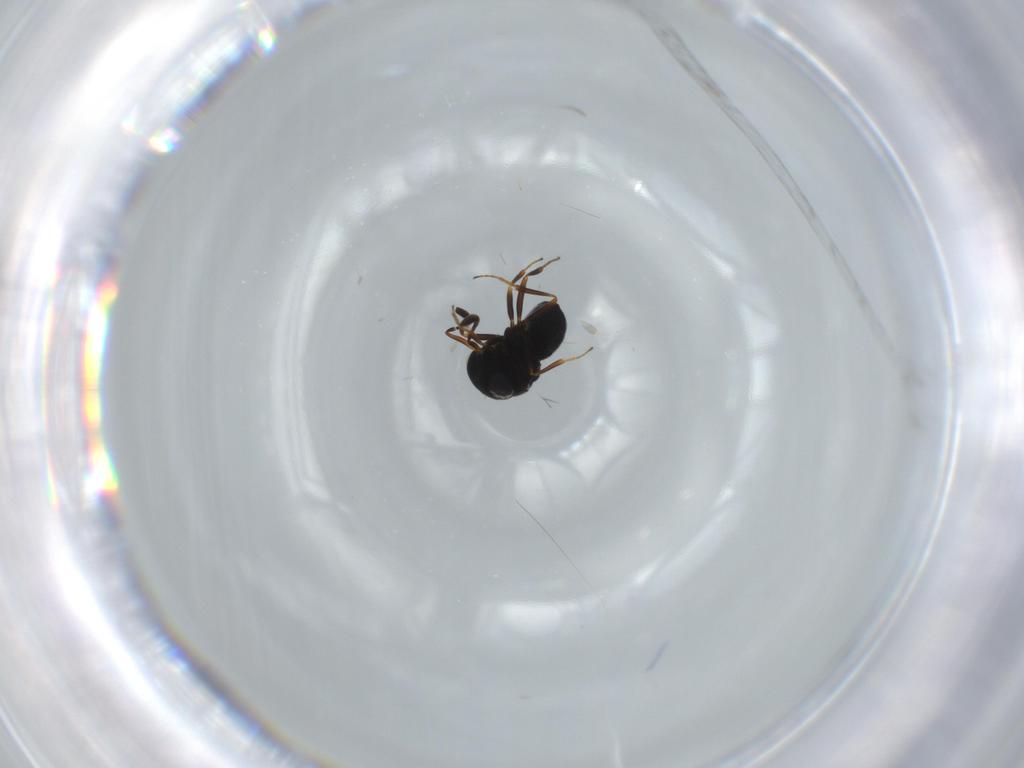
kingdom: Animalia
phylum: Arthropoda
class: Insecta
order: Hymenoptera
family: Scelionidae
